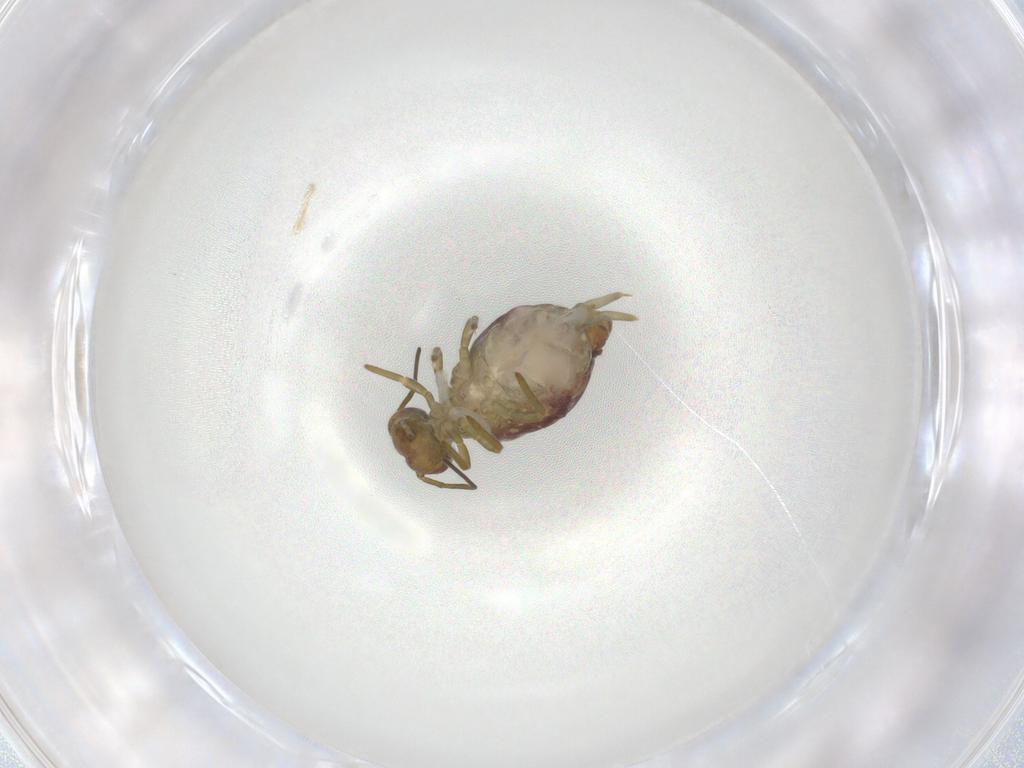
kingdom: Animalia
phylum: Arthropoda
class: Collembola
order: Symphypleona
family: Sminthuridae
